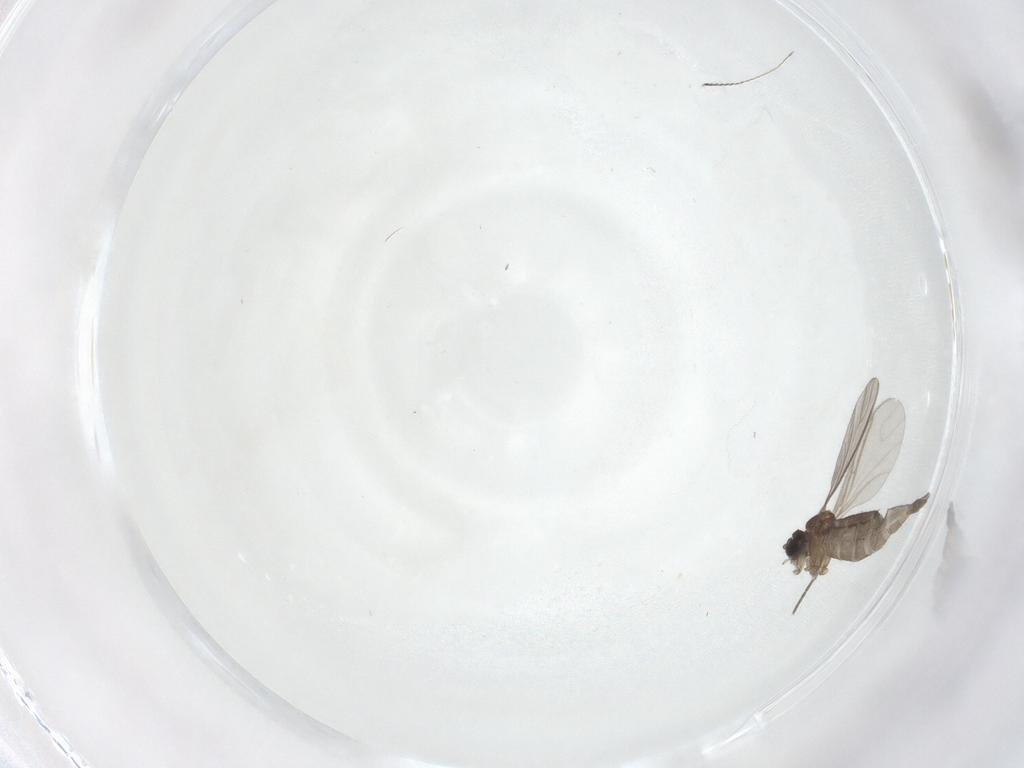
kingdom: Animalia
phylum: Arthropoda
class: Insecta
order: Diptera
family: Sciaridae
